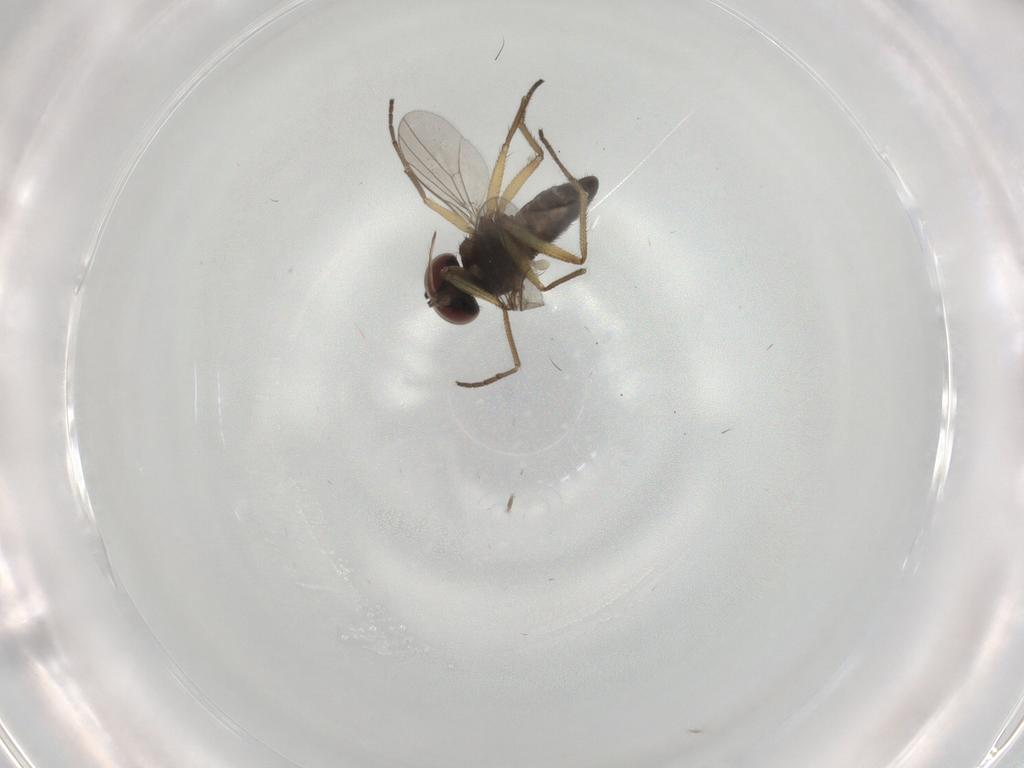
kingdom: Animalia
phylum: Arthropoda
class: Insecta
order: Diptera
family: Dolichopodidae
